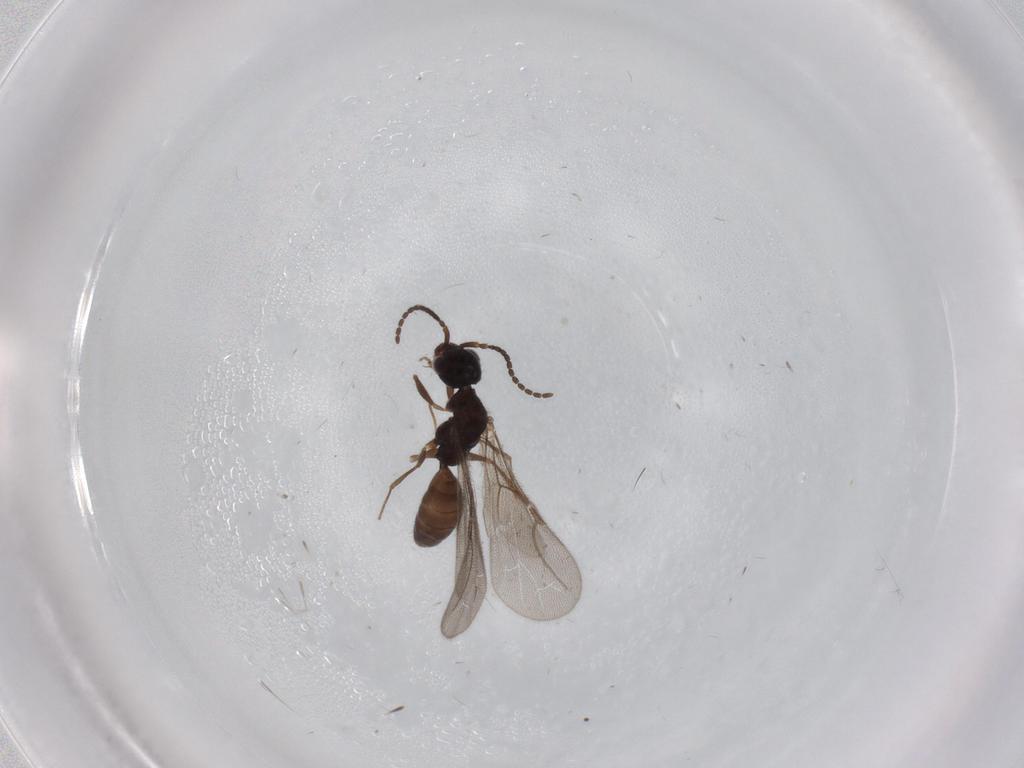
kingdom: Animalia
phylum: Arthropoda
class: Insecta
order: Hymenoptera
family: Bethylidae
